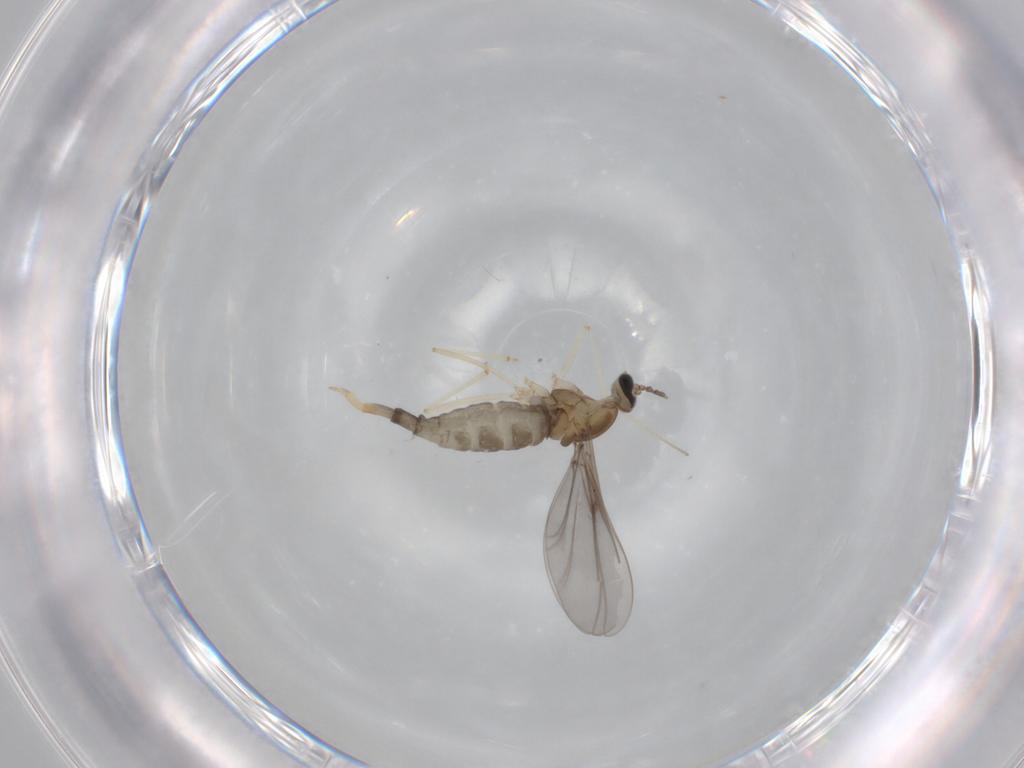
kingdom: Animalia
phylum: Arthropoda
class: Insecta
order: Diptera
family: Cecidomyiidae
